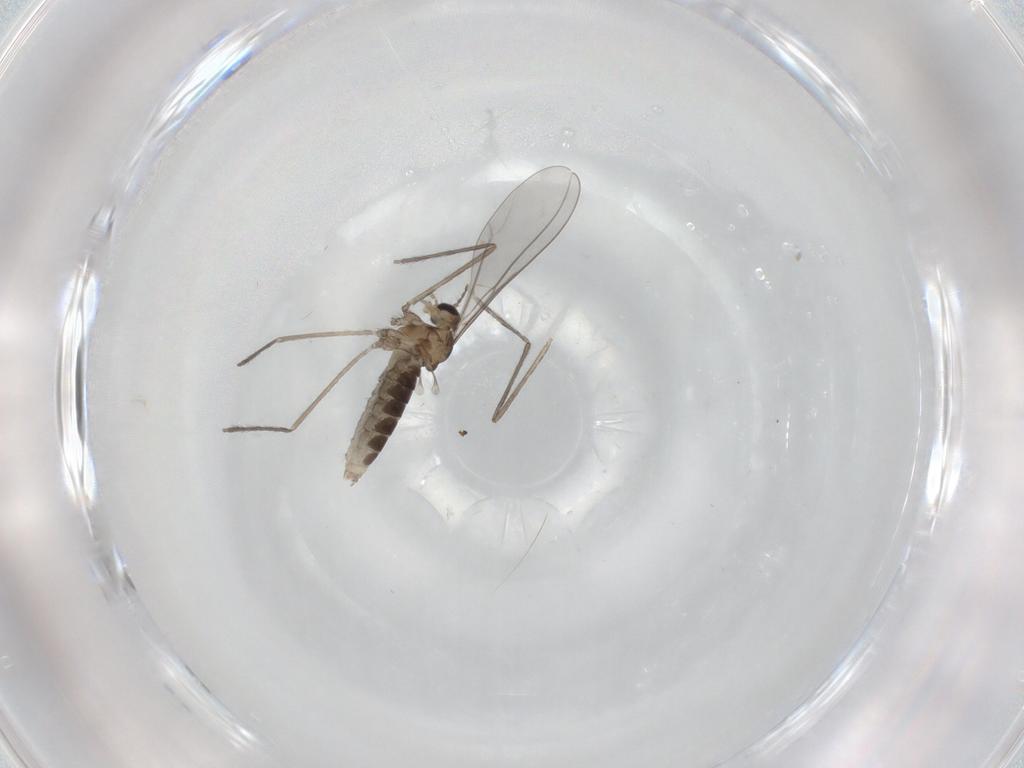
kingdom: Animalia
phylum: Arthropoda
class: Insecta
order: Diptera
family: Cecidomyiidae
